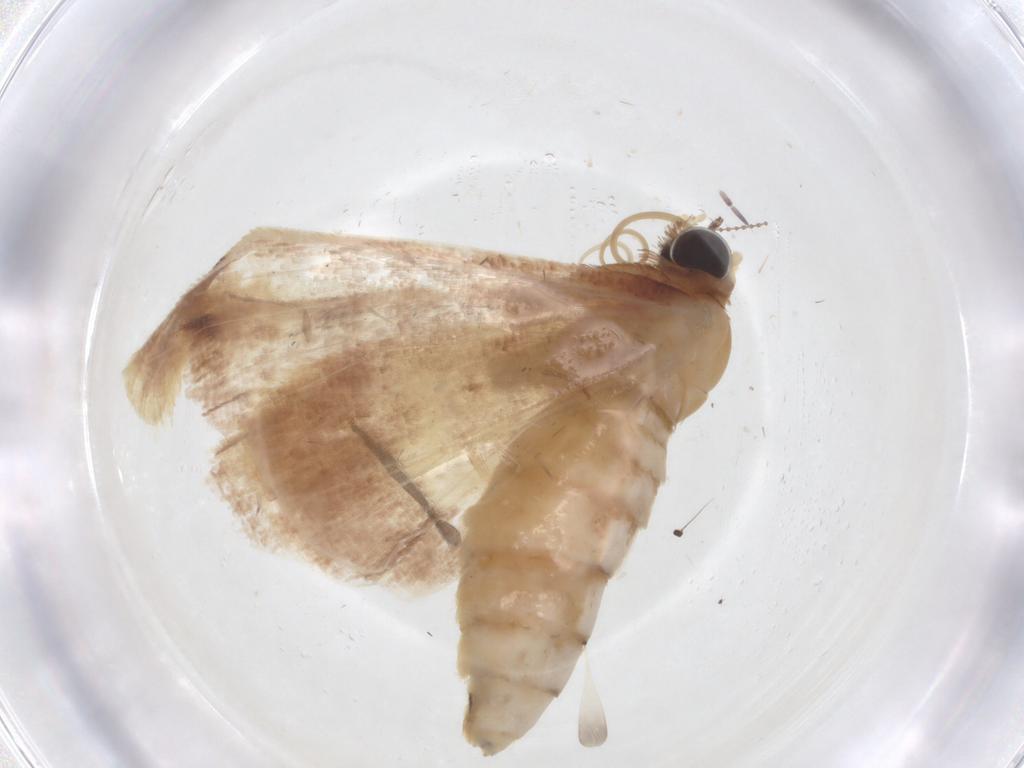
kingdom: Animalia
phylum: Arthropoda
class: Insecta
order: Lepidoptera
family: Geometridae
